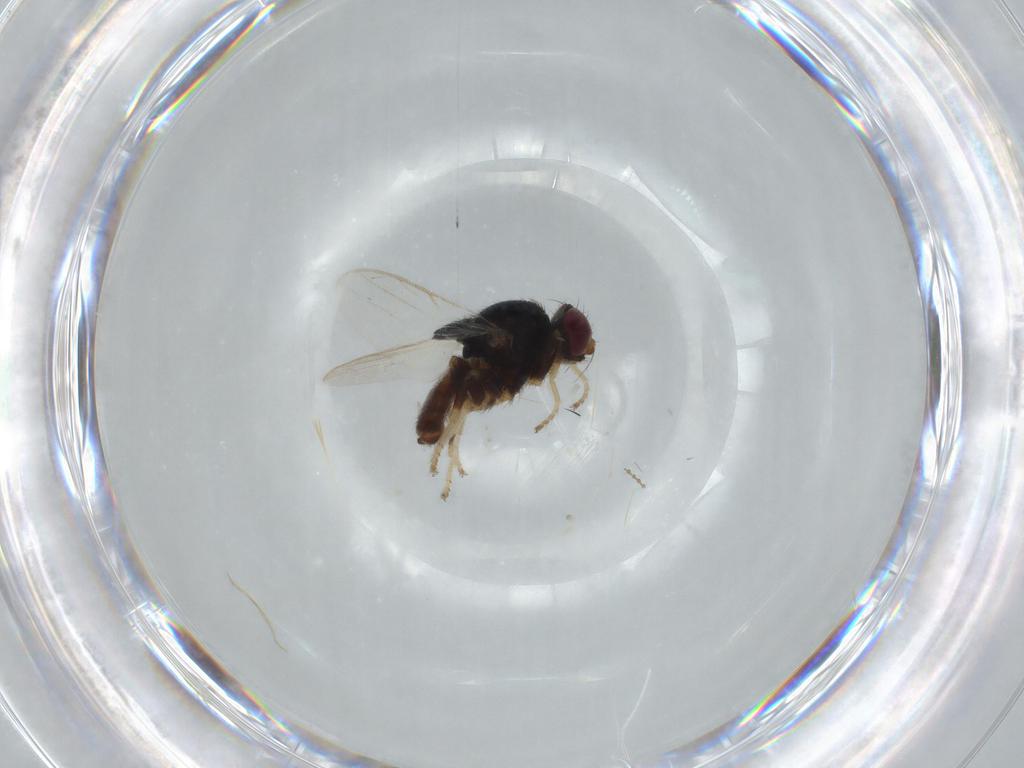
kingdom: Animalia
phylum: Arthropoda
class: Insecta
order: Diptera
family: Chloropidae
